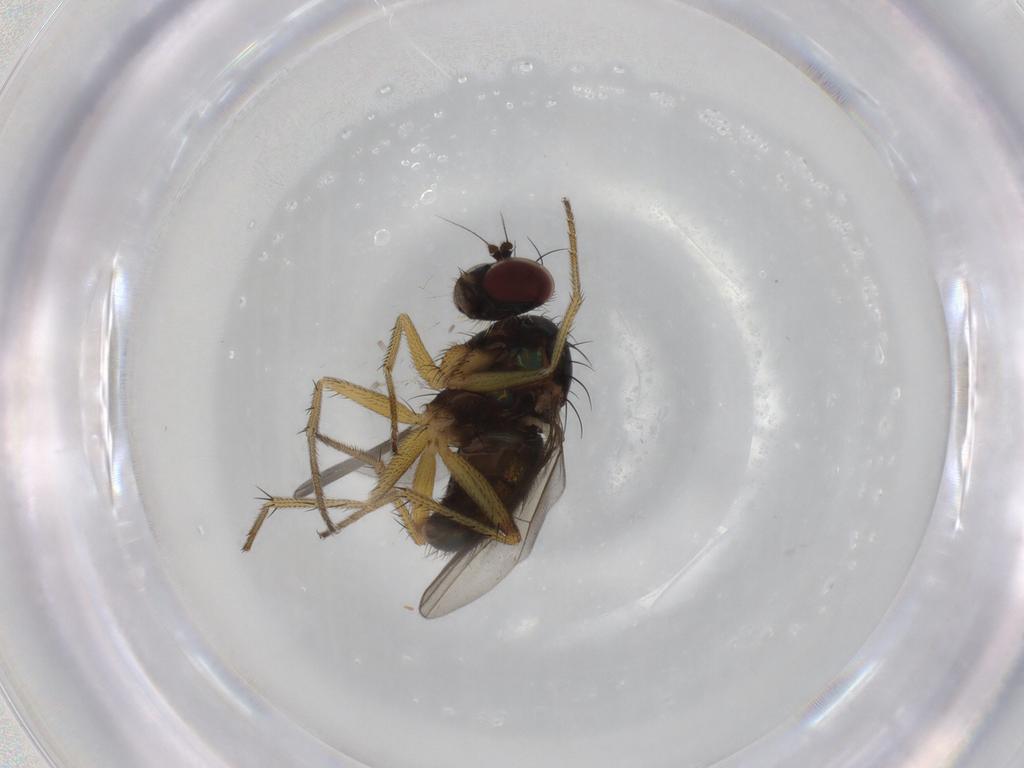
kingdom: Animalia
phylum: Arthropoda
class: Insecta
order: Diptera
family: Dolichopodidae
